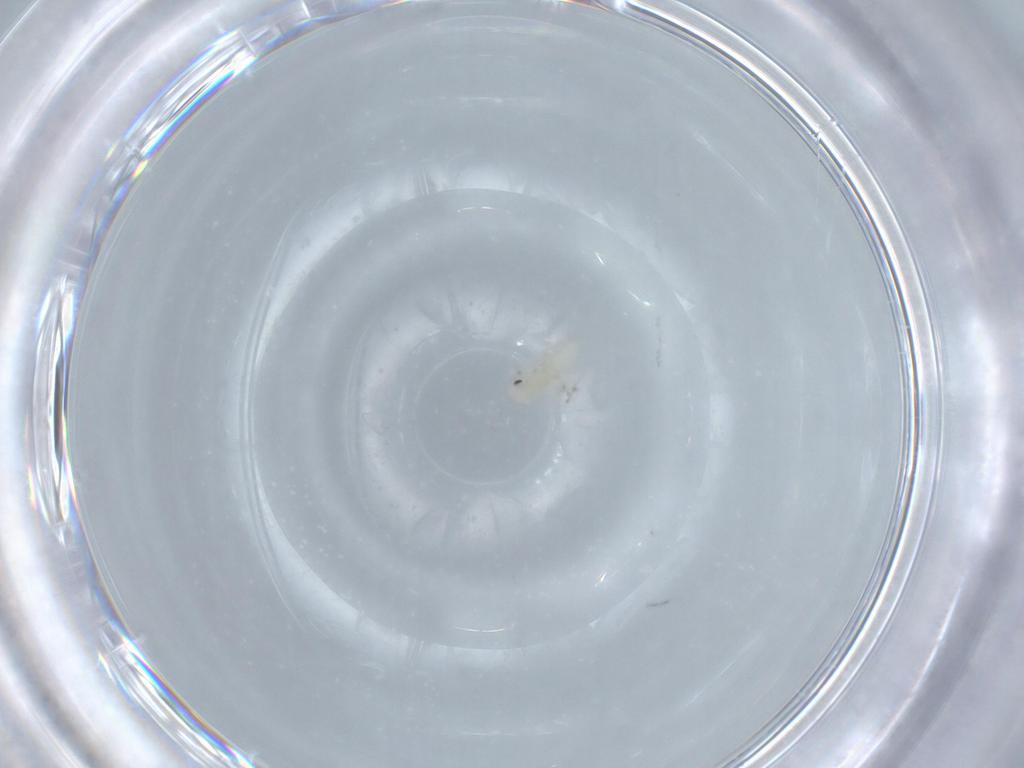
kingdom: Animalia
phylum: Arthropoda
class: Insecta
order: Hemiptera
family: Cicadellidae
